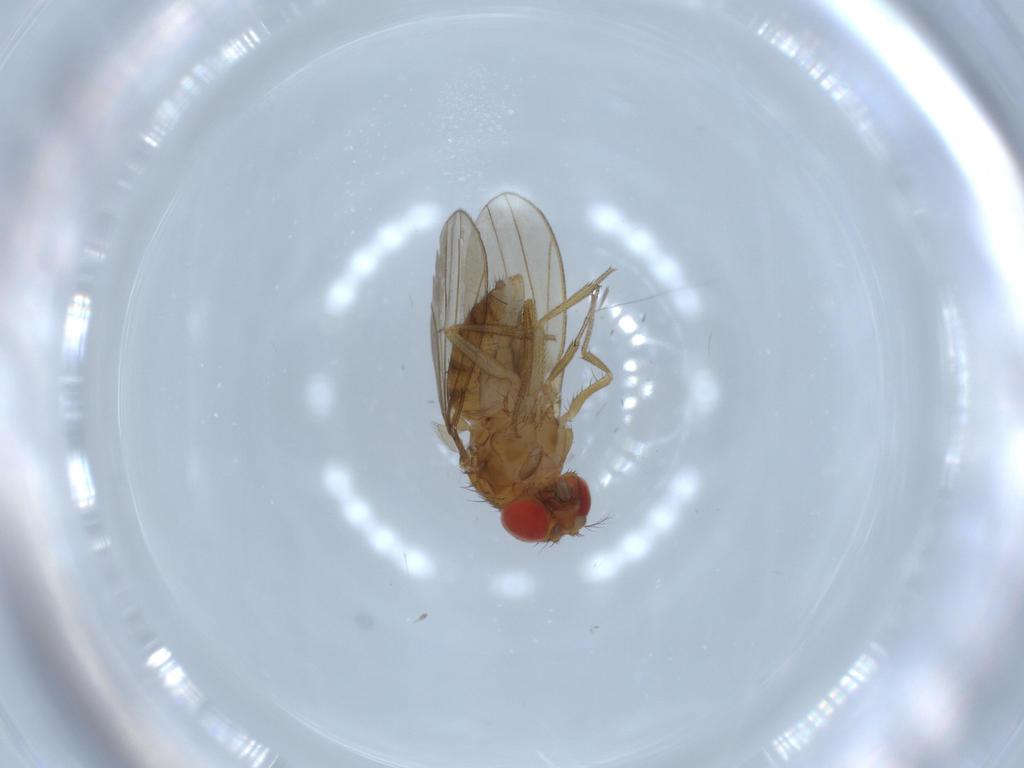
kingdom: Animalia
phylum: Arthropoda
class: Insecta
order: Diptera
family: Drosophilidae
